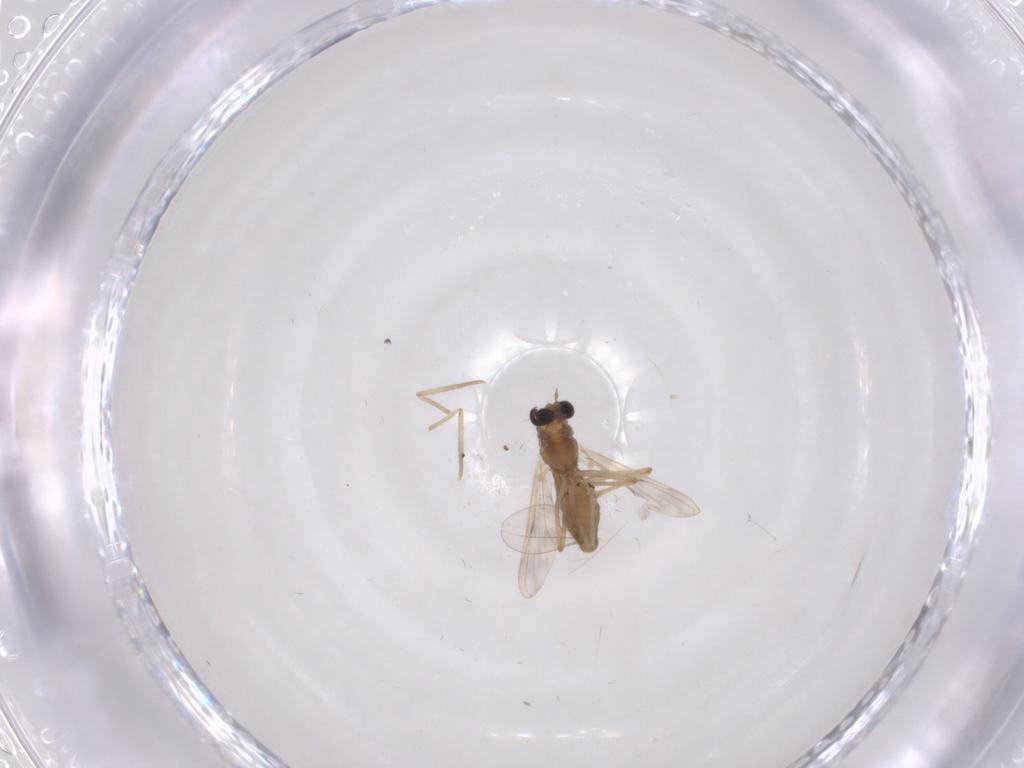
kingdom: Animalia
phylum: Arthropoda
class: Insecta
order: Diptera
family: Chironomidae
